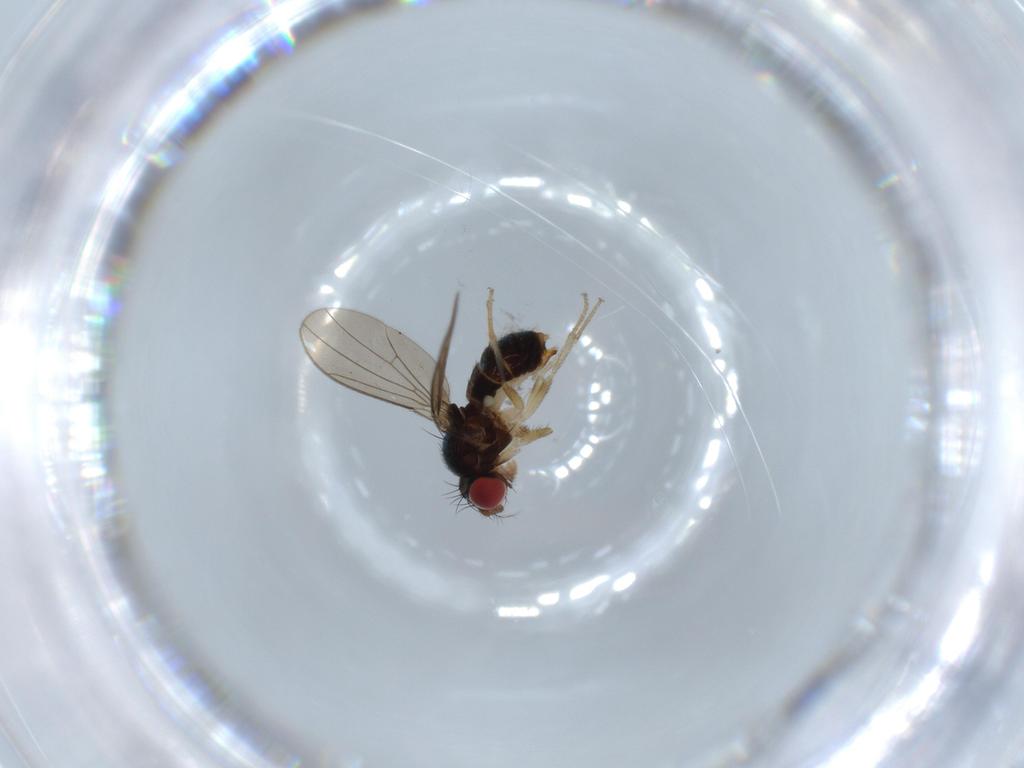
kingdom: Animalia
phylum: Arthropoda
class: Insecta
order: Diptera
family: Drosophilidae
